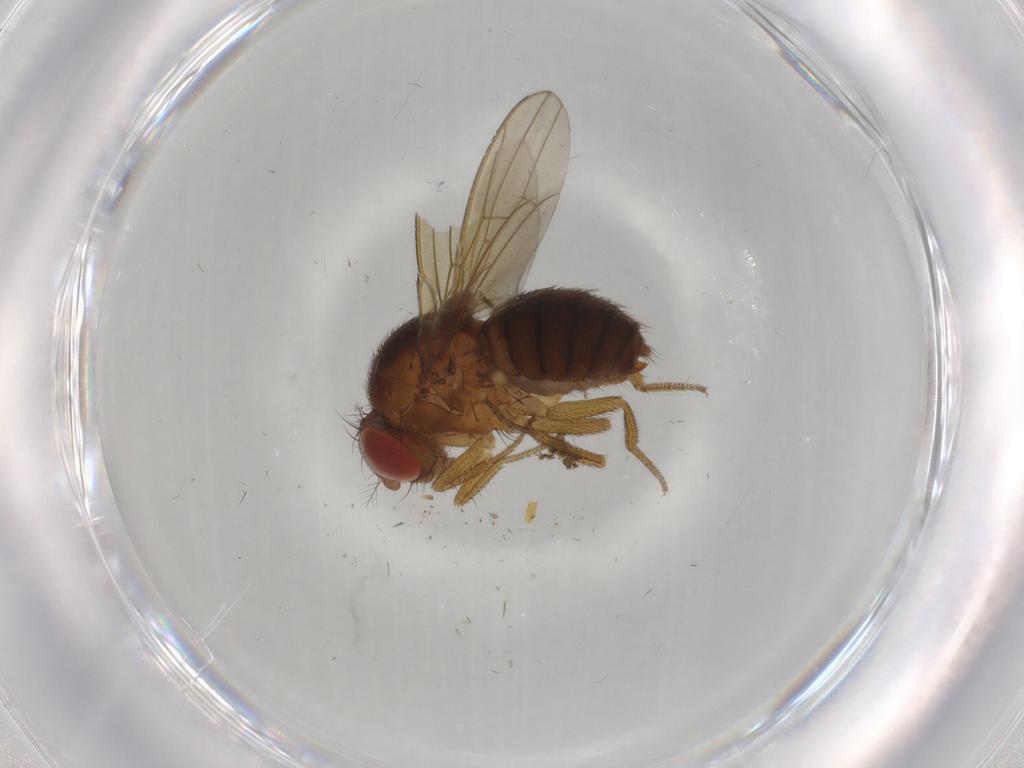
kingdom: Animalia
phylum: Arthropoda
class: Insecta
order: Diptera
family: Drosophilidae
